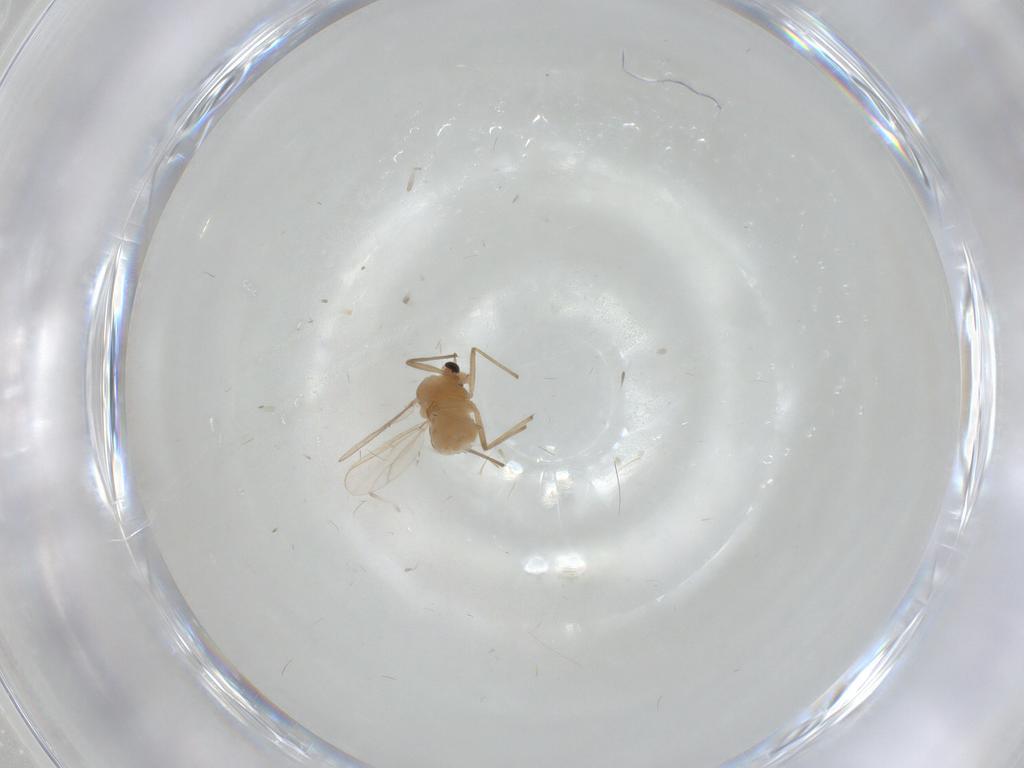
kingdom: Animalia
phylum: Arthropoda
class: Insecta
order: Diptera
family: Chironomidae
